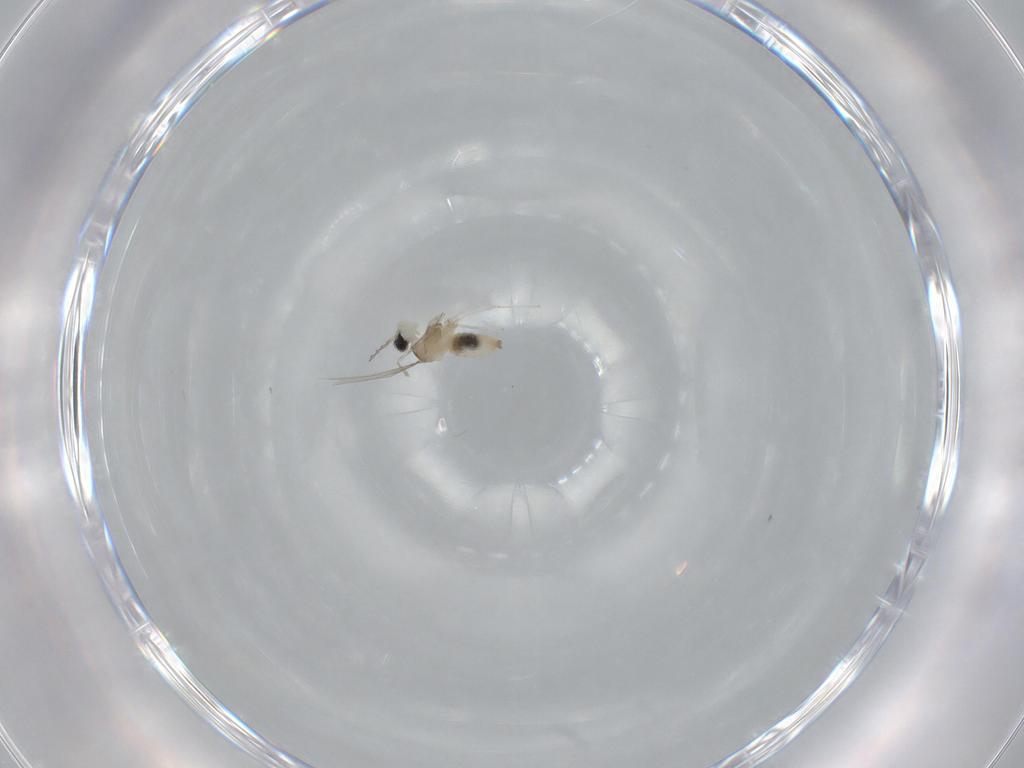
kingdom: Animalia
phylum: Arthropoda
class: Insecta
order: Diptera
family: Cecidomyiidae
